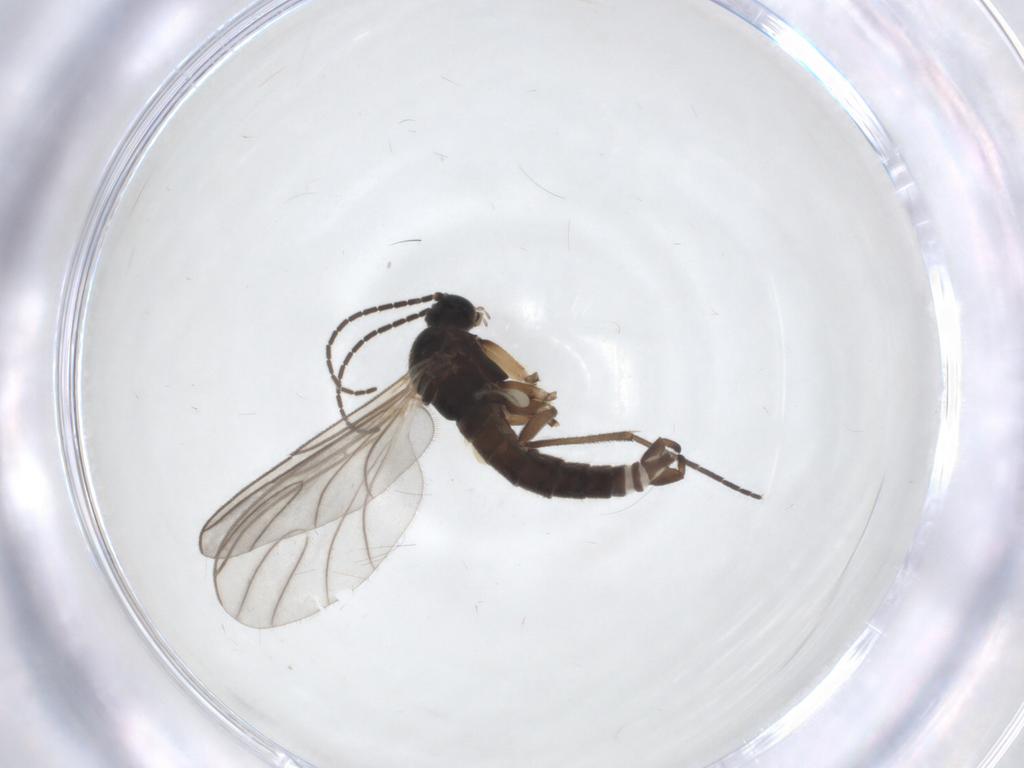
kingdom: Animalia
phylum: Arthropoda
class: Insecta
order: Diptera
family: Sciaridae
